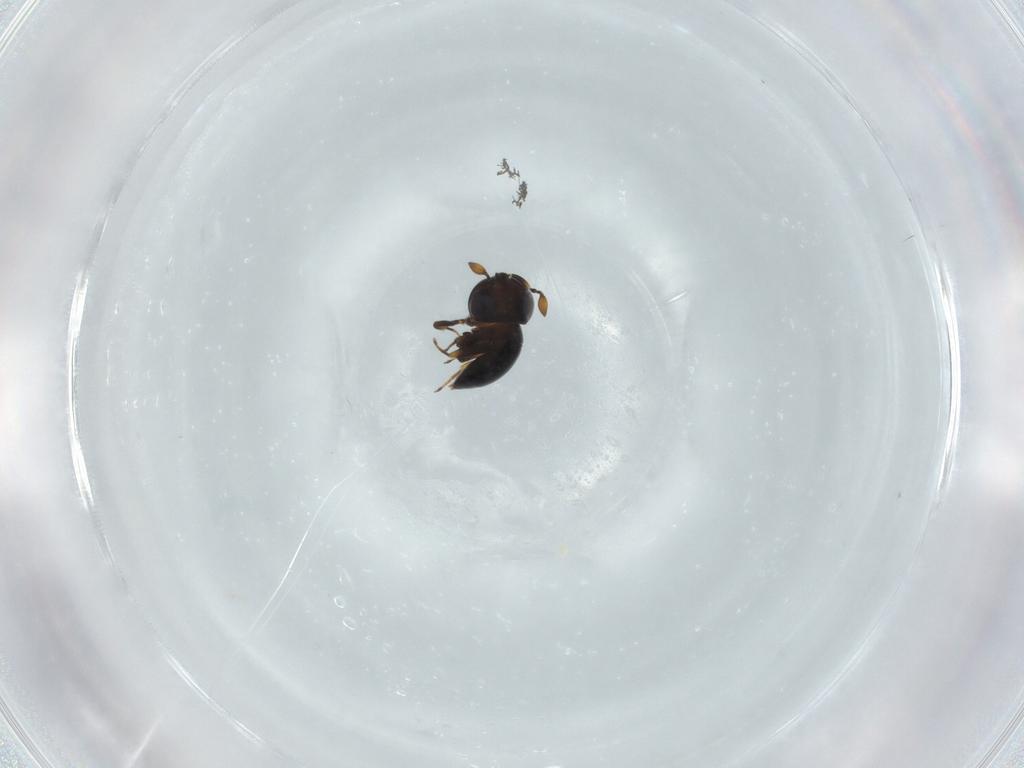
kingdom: Animalia
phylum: Arthropoda
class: Insecta
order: Hymenoptera
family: Scelionidae
